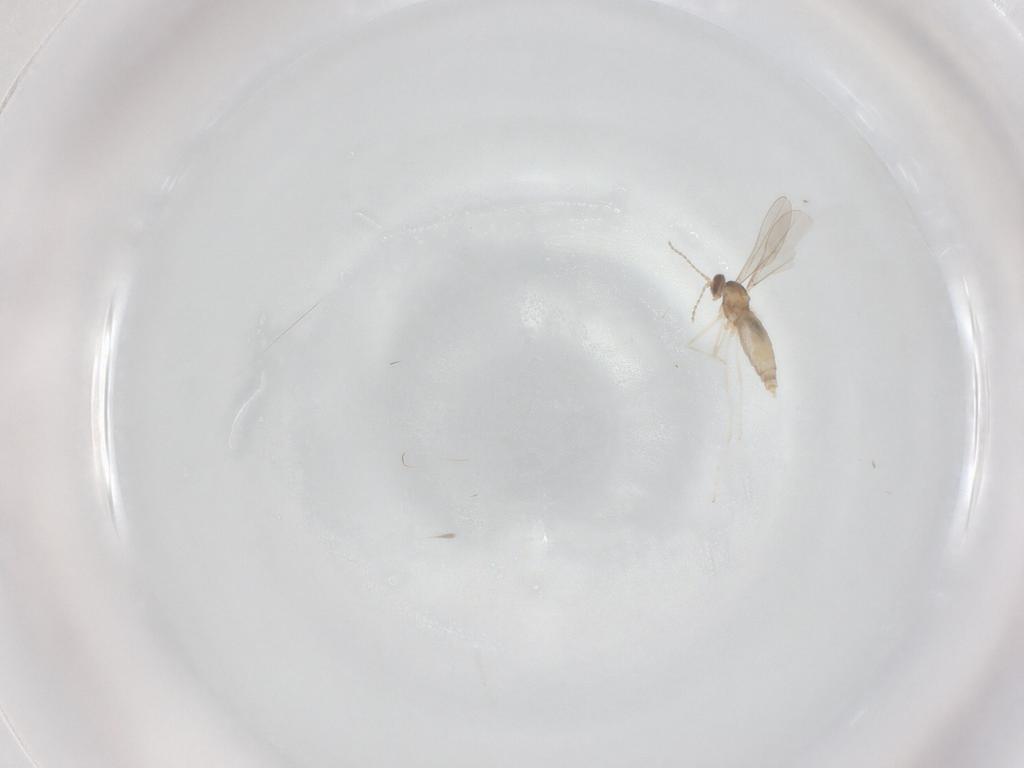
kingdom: Animalia
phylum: Arthropoda
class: Insecta
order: Diptera
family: Cecidomyiidae
